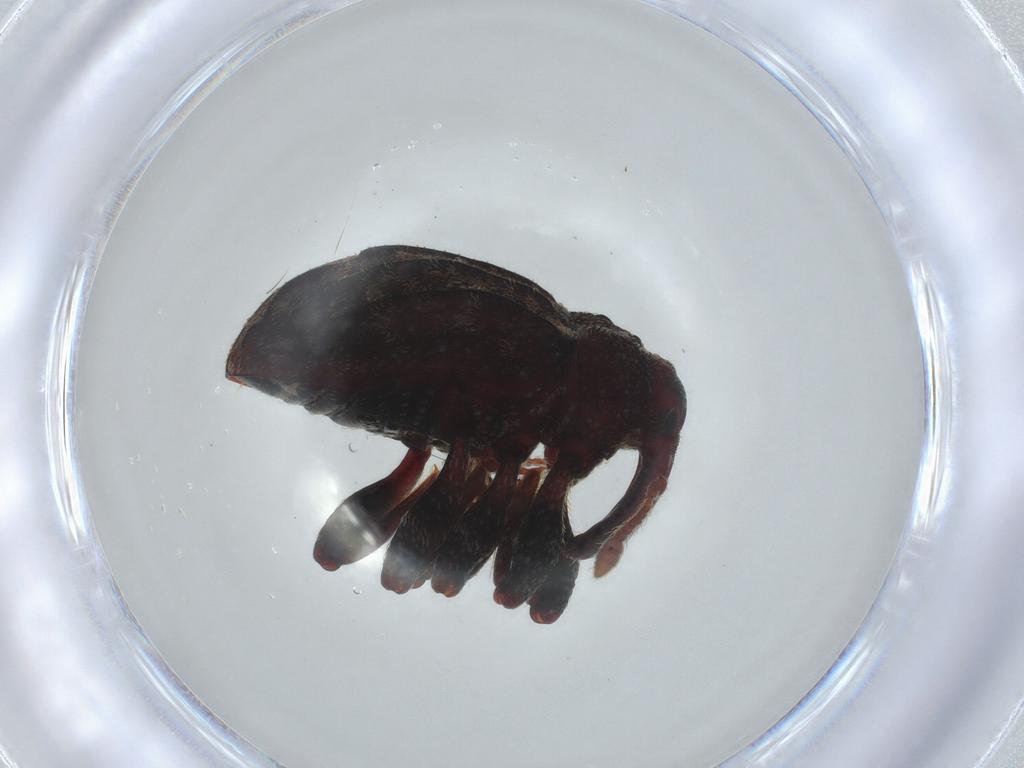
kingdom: Animalia
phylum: Arthropoda
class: Insecta
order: Coleoptera
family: Curculionidae
